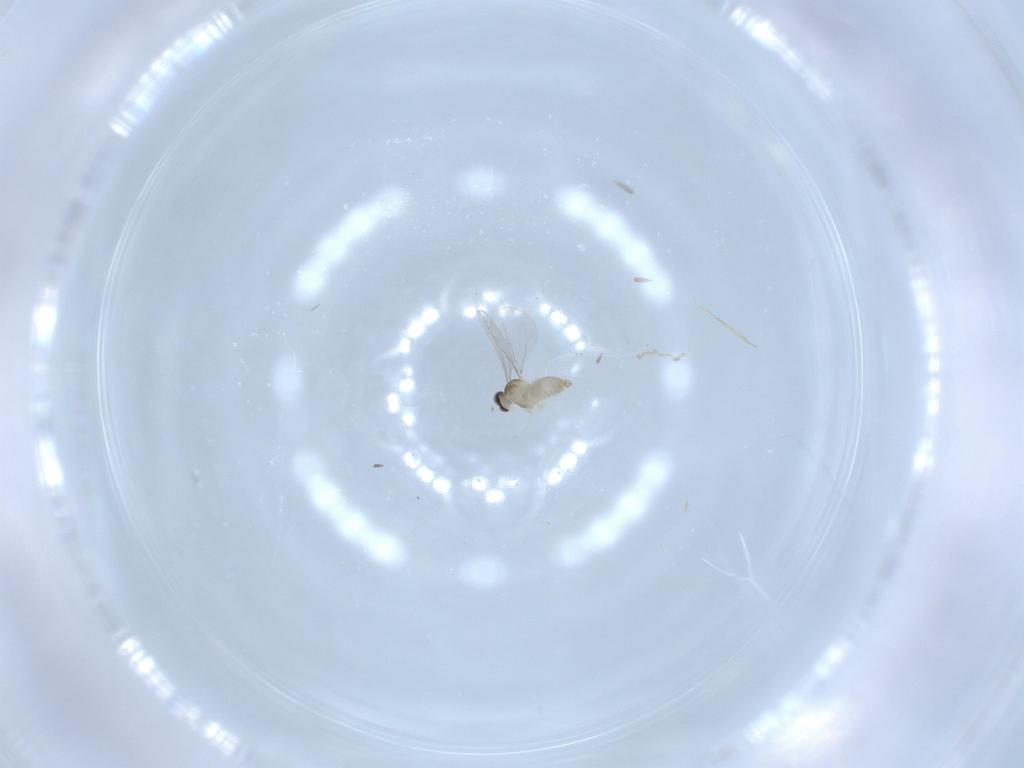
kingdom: Animalia
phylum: Arthropoda
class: Insecta
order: Diptera
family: Cecidomyiidae
